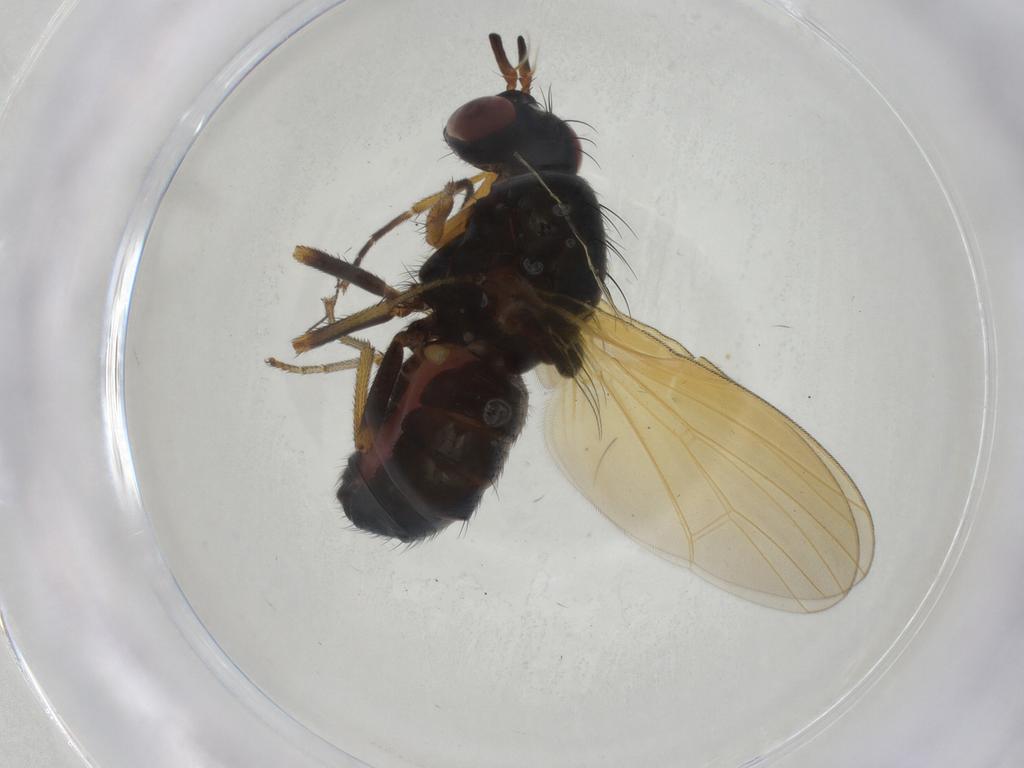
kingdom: Animalia
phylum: Arthropoda
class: Insecta
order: Diptera
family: Sciaridae
